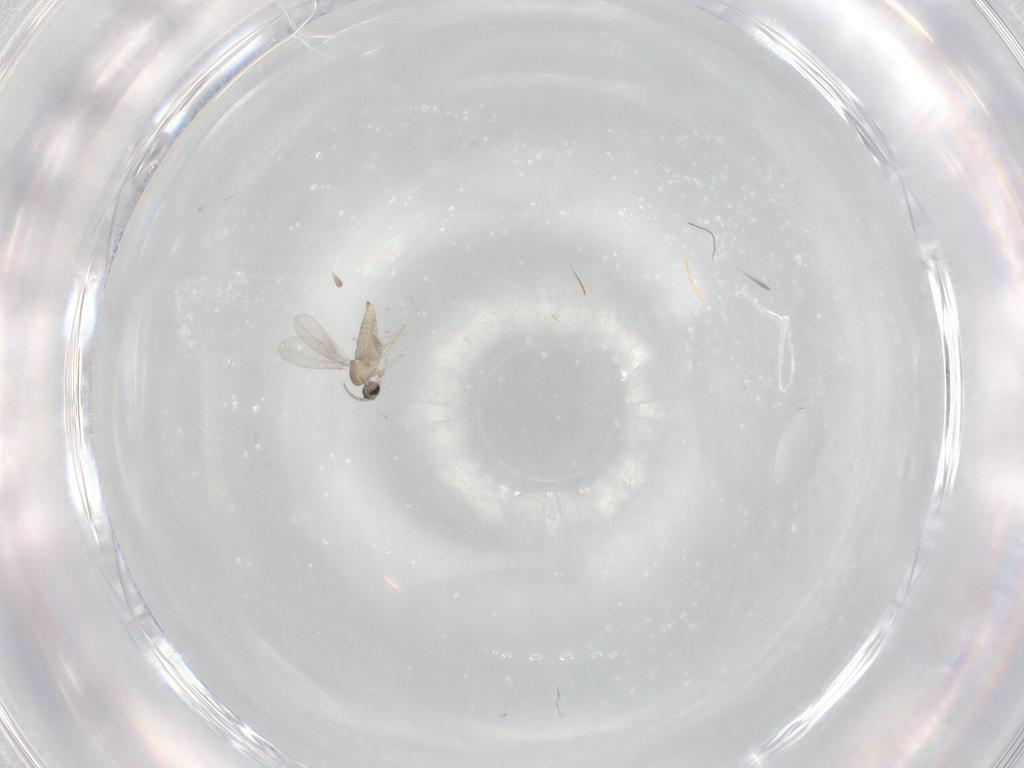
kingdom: Animalia
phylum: Arthropoda
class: Insecta
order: Diptera
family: Cecidomyiidae
